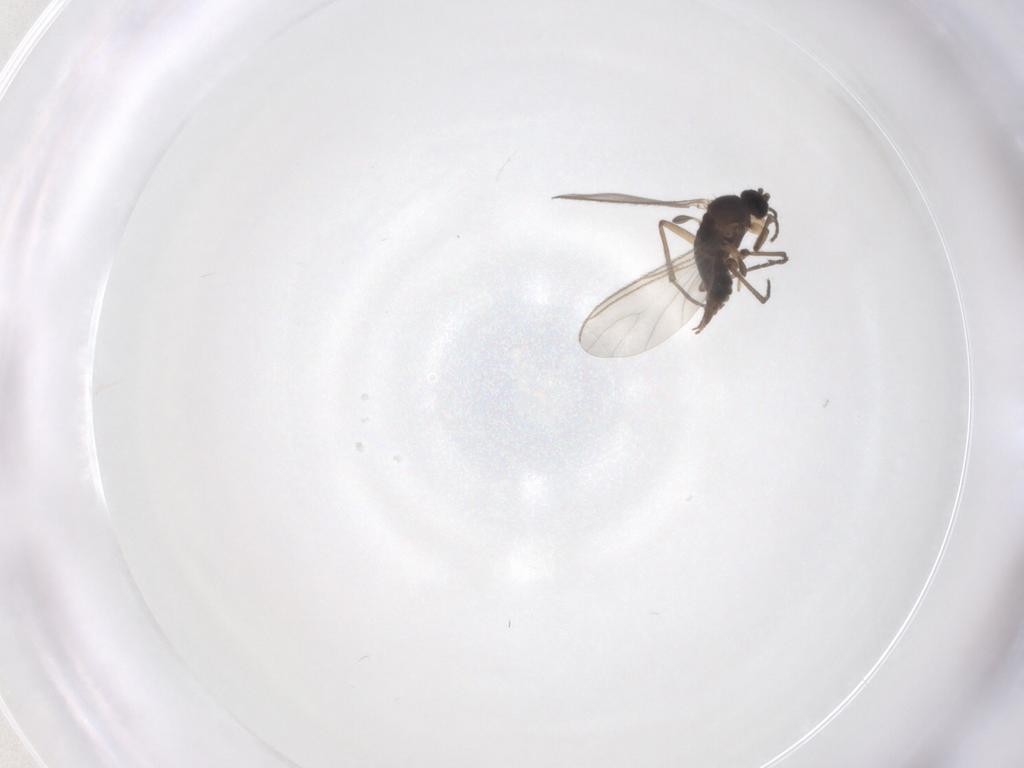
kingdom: Animalia
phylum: Arthropoda
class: Insecta
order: Diptera
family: Sciaridae
